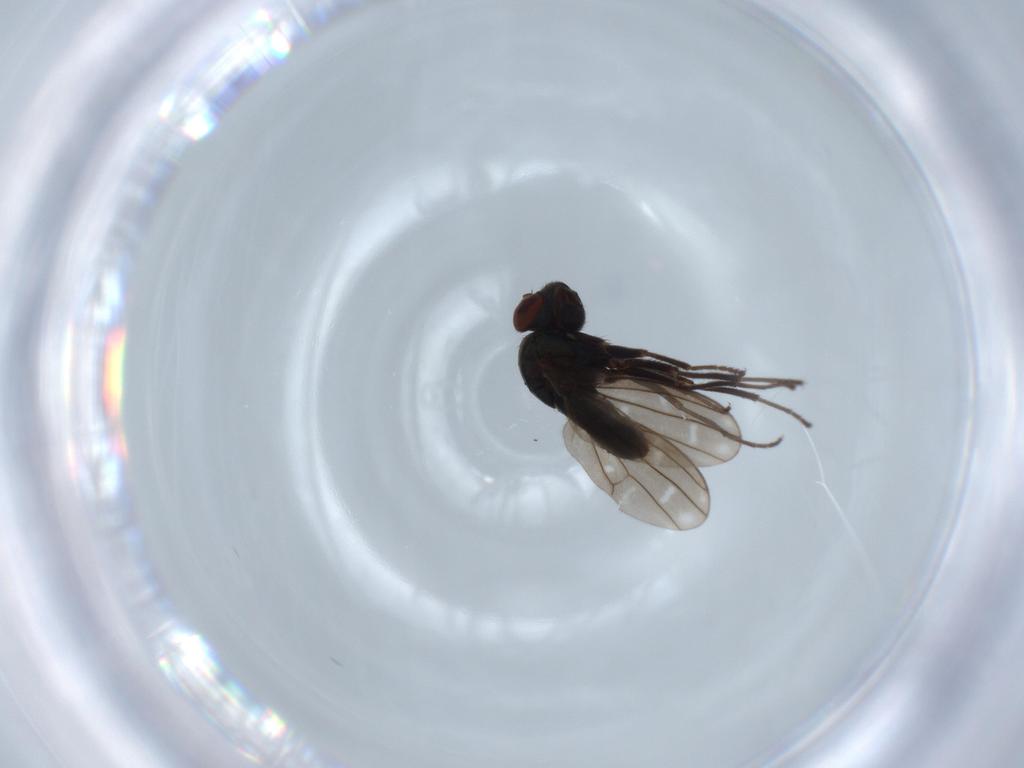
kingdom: Animalia
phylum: Arthropoda
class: Insecta
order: Diptera
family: Ephydridae
